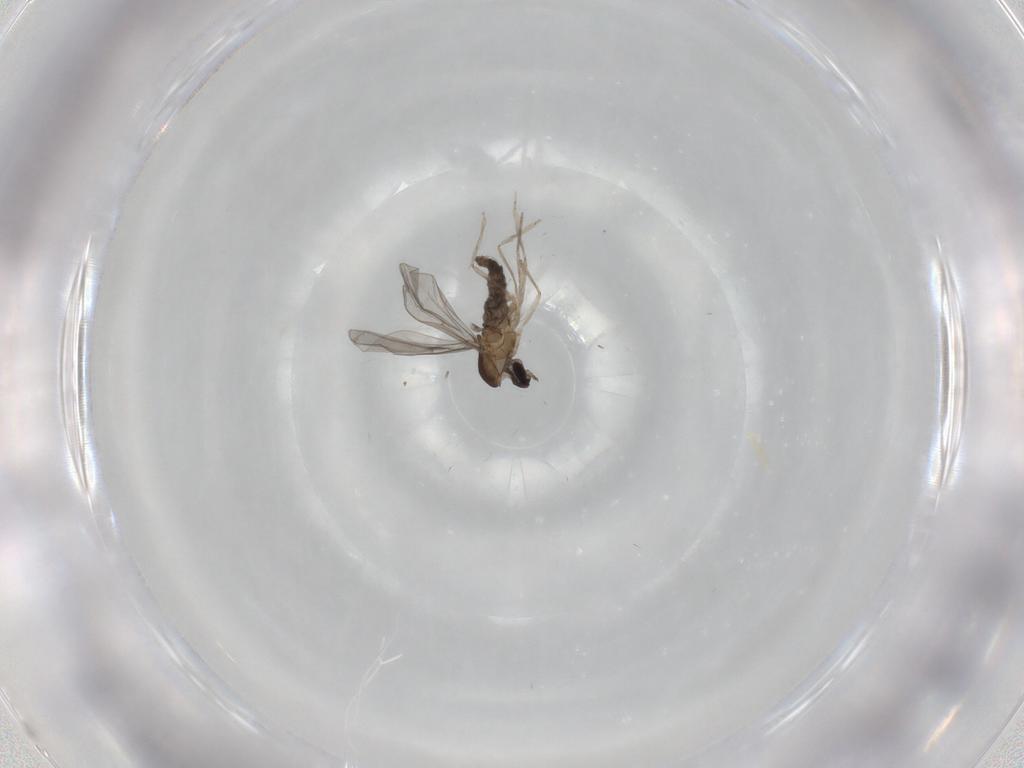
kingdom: Animalia
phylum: Arthropoda
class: Insecta
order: Diptera
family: Cecidomyiidae
